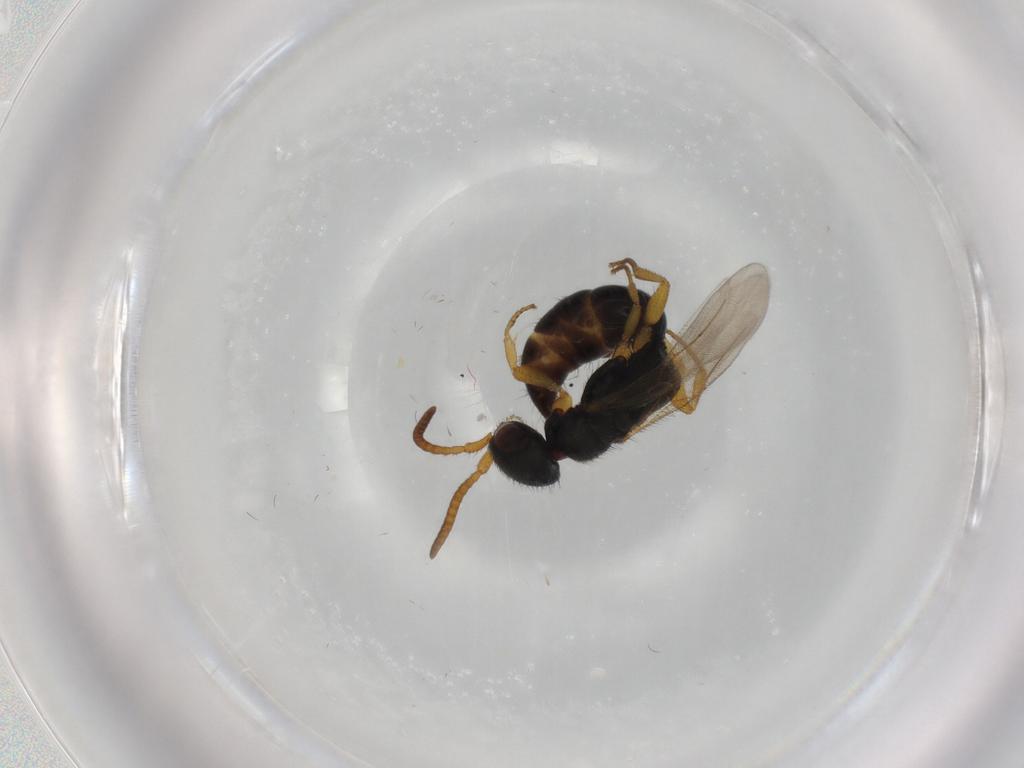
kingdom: Animalia
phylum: Arthropoda
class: Insecta
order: Hymenoptera
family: Bethylidae
